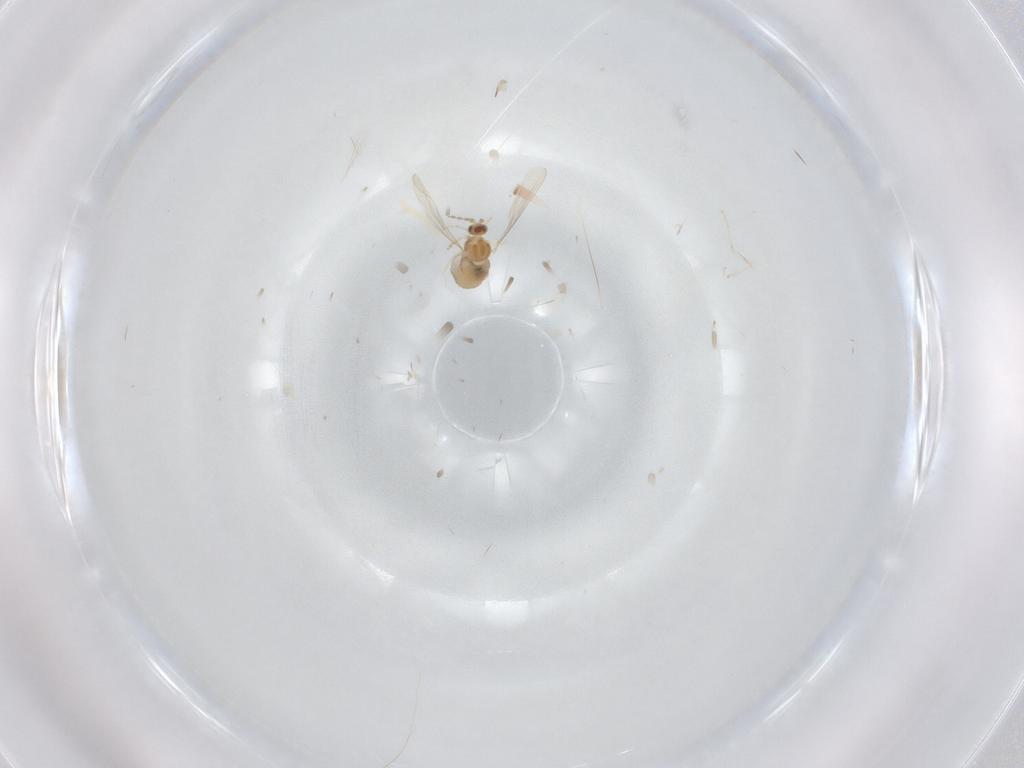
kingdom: Animalia
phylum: Arthropoda
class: Insecta
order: Diptera
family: Cecidomyiidae
